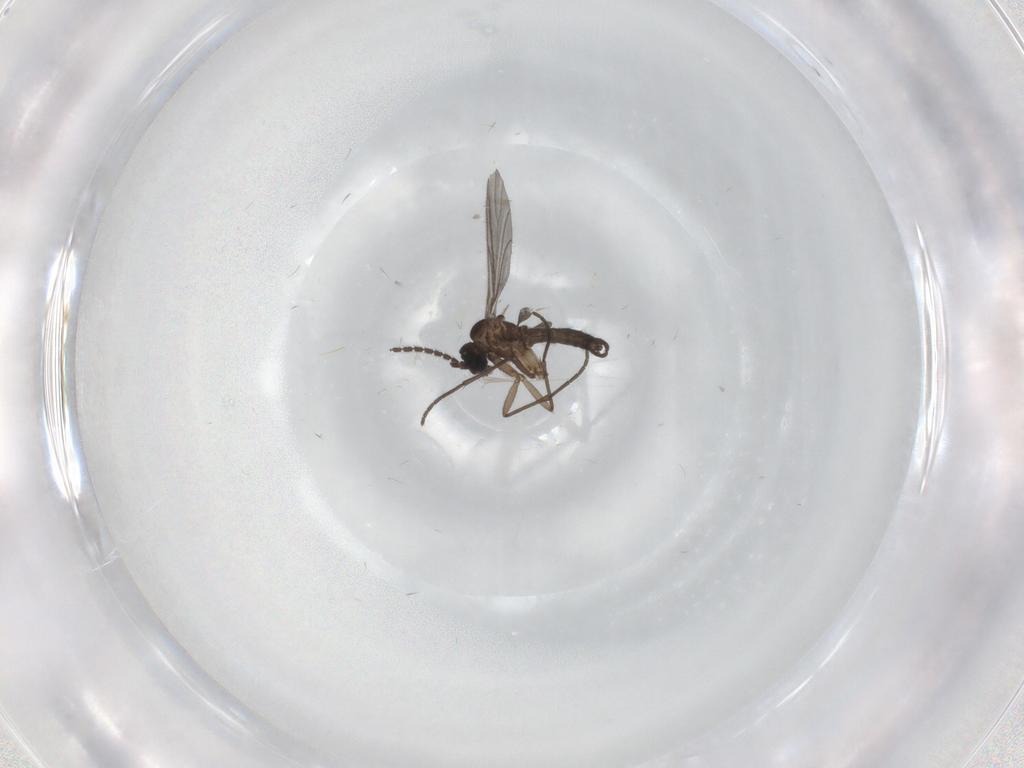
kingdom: Animalia
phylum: Arthropoda
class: Insecta
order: Diptera
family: Sciaridae
